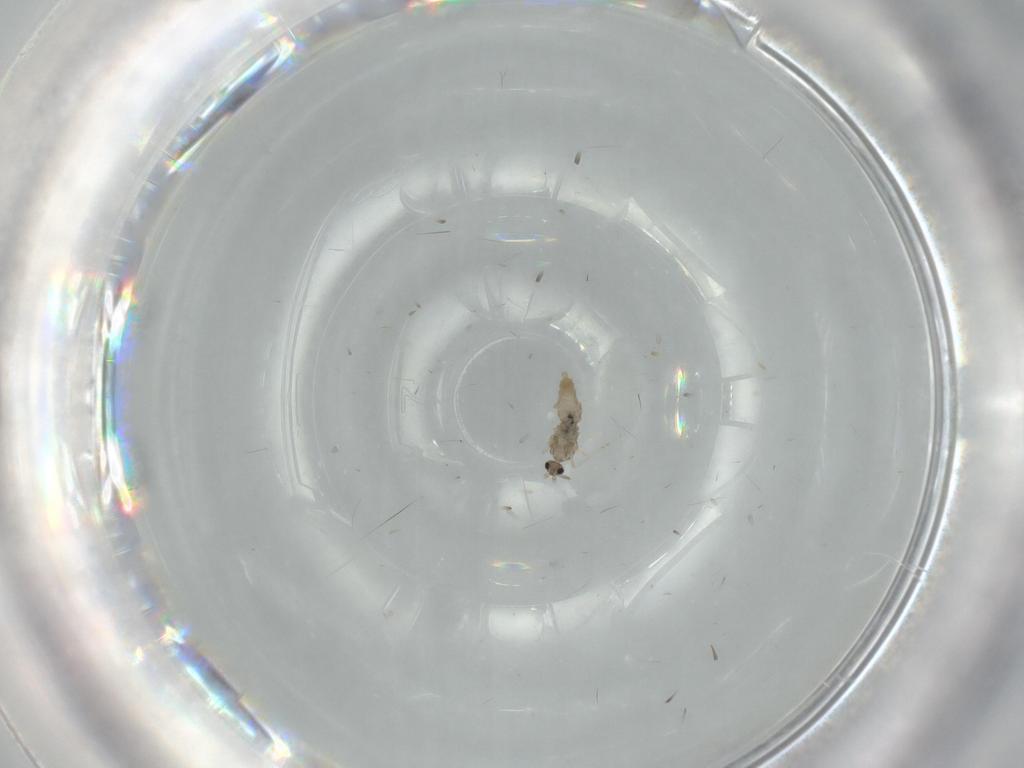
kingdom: Animalia
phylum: Arthropoda
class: Insecta
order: Diptera
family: Cecidomyiidae
